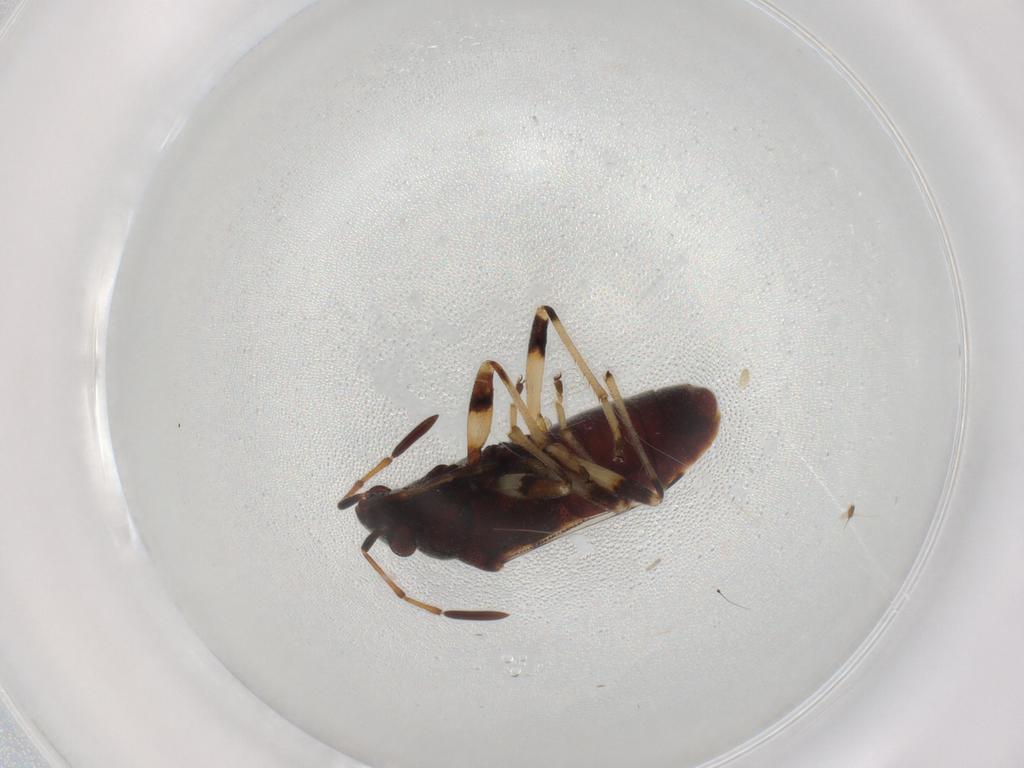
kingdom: Animalia
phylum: Arthropoda
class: Insecta
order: Hemiptera
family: Rhyparochromidae
